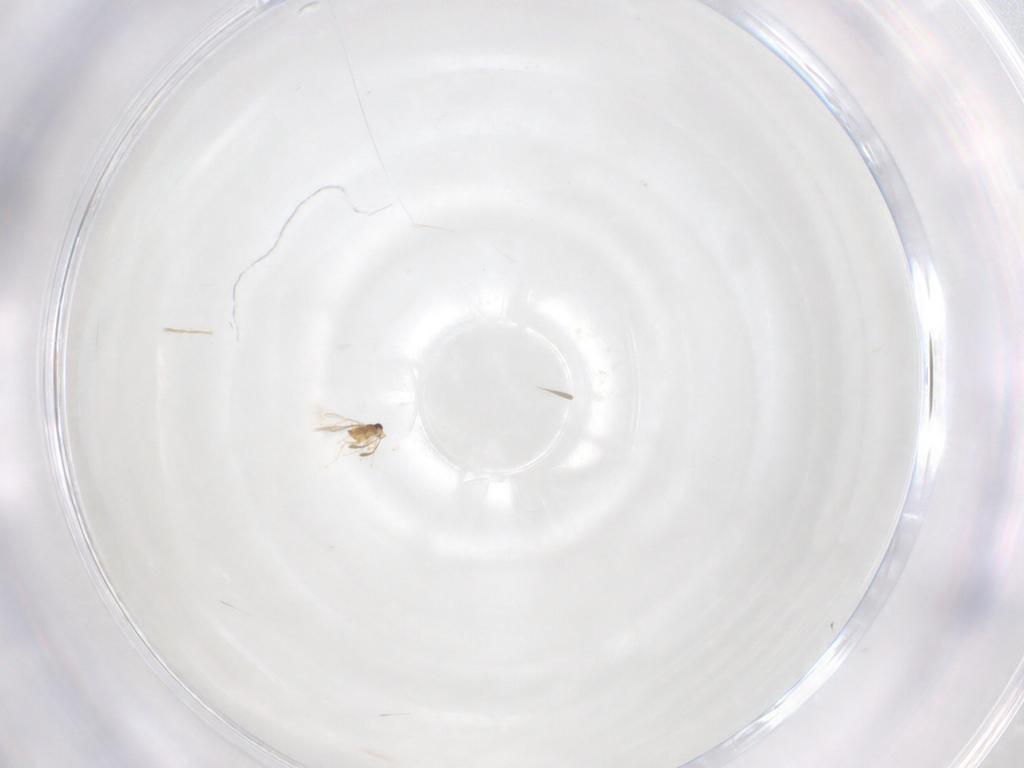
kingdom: Animalia
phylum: Arthropoda
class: Insecta
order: Hymenoptera
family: Mymaridae
